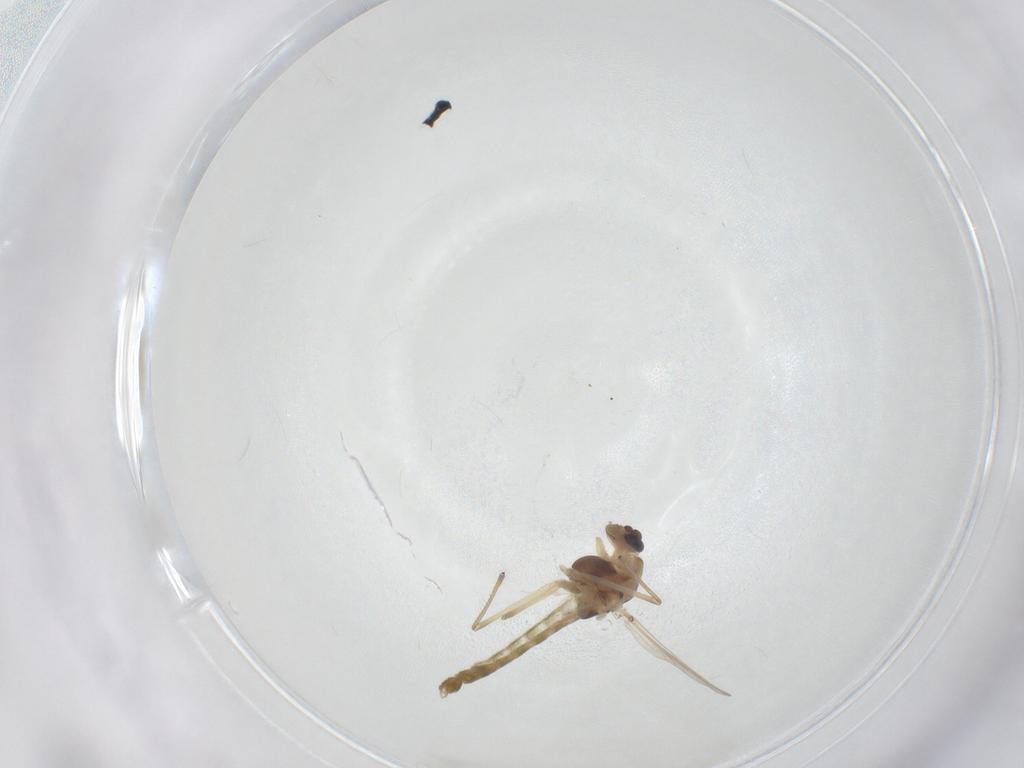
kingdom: Animalia
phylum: Arthropoda
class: Insecta
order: Diptera
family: Chironomidae
